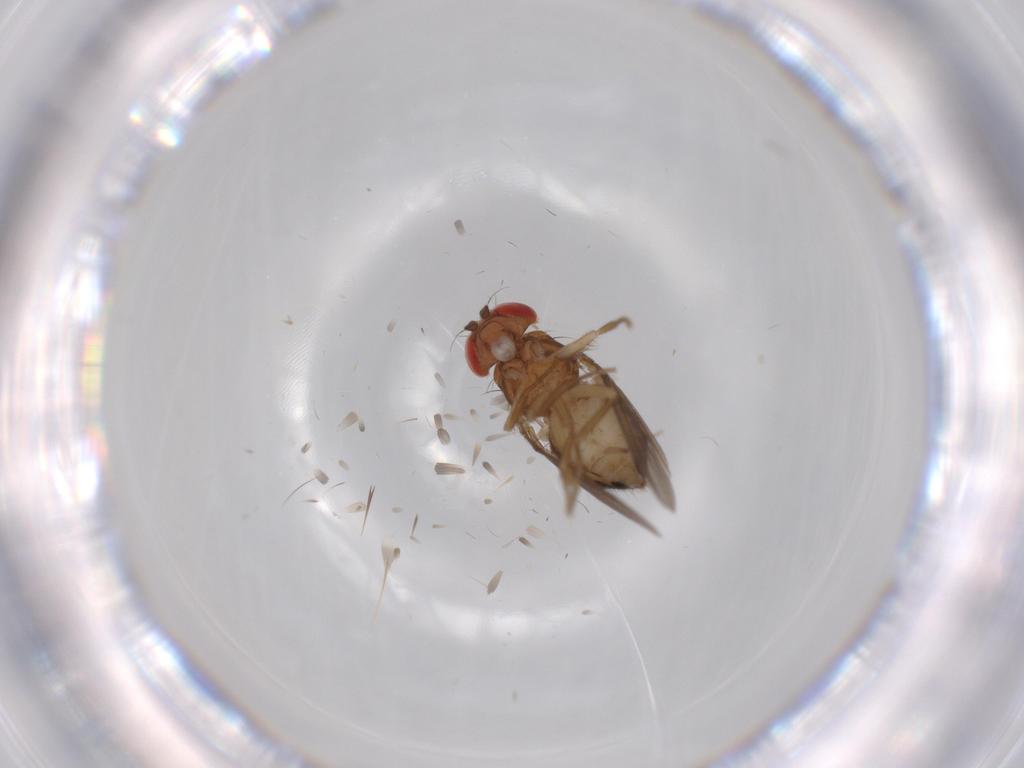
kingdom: Animalia
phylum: Arthropoda
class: Insecta
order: Diptera
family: Drosophilidae
